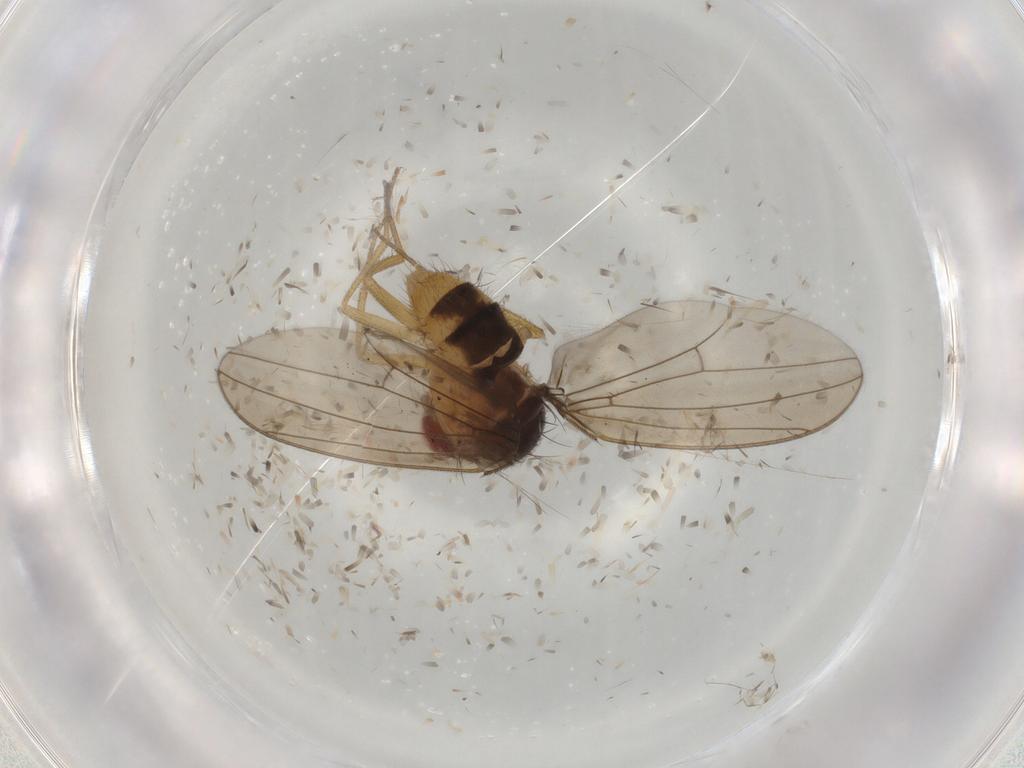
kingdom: Animalia
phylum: Arthropoda
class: Insecta
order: Diptera
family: Drosophilidae
